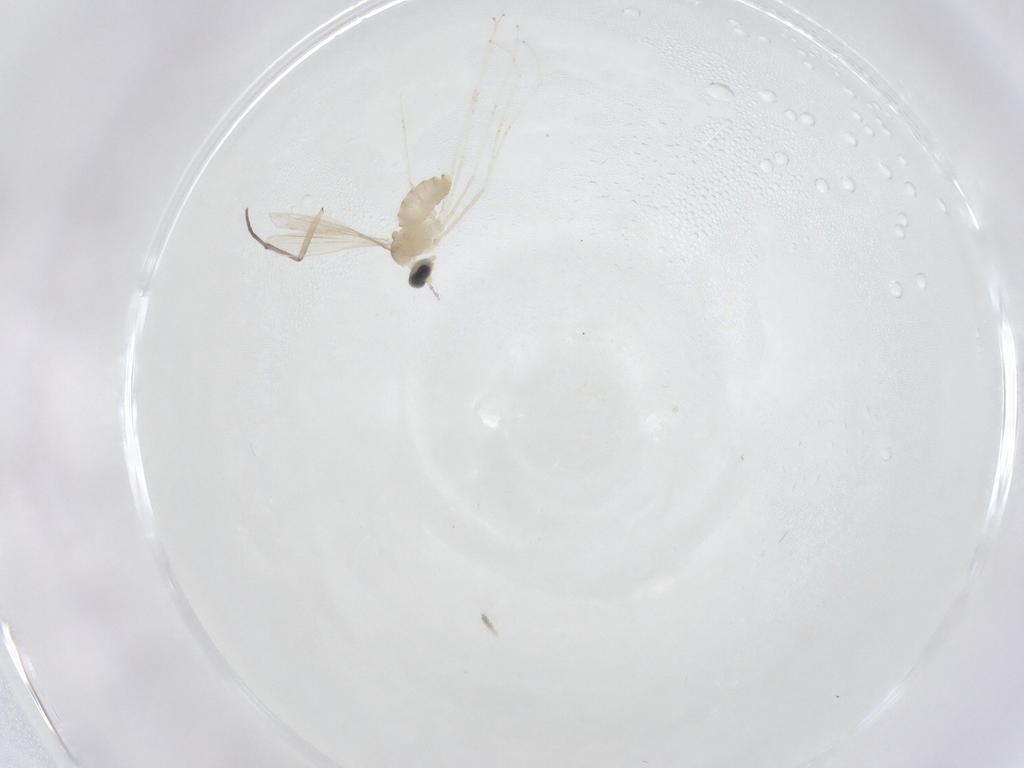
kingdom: Animalia
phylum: Arthropoda
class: Insecta
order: Diptera
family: Cecidomyiidae
